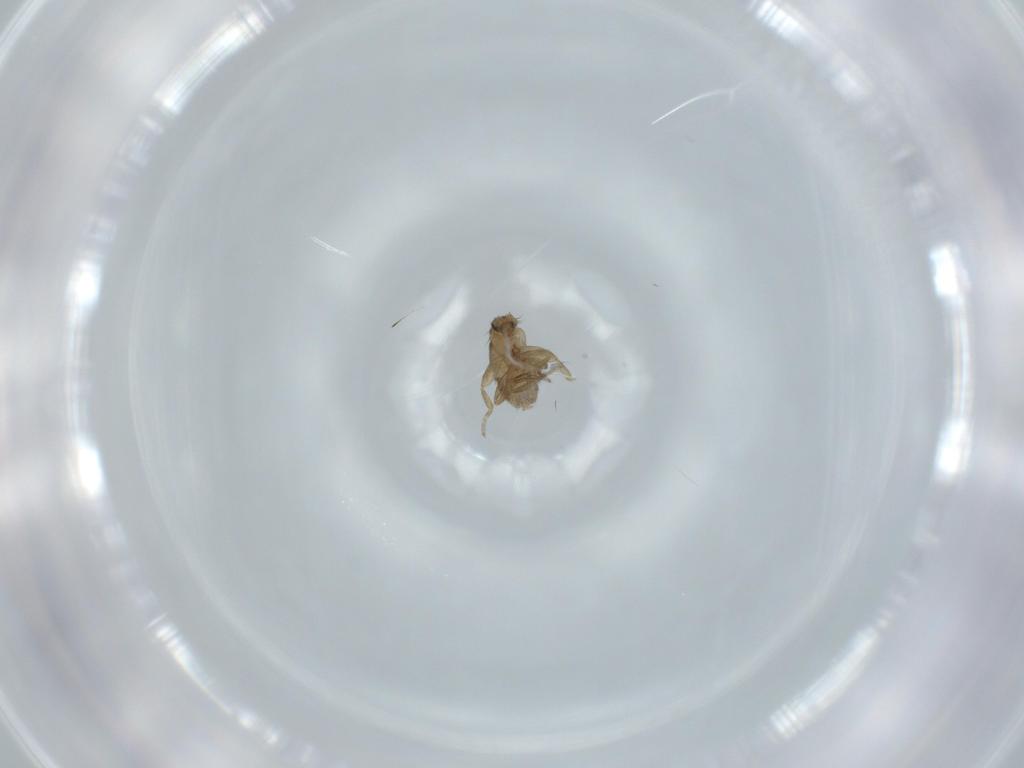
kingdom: Animalia
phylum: Arthropoda
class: Insecta
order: Diptera
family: Phoridae
